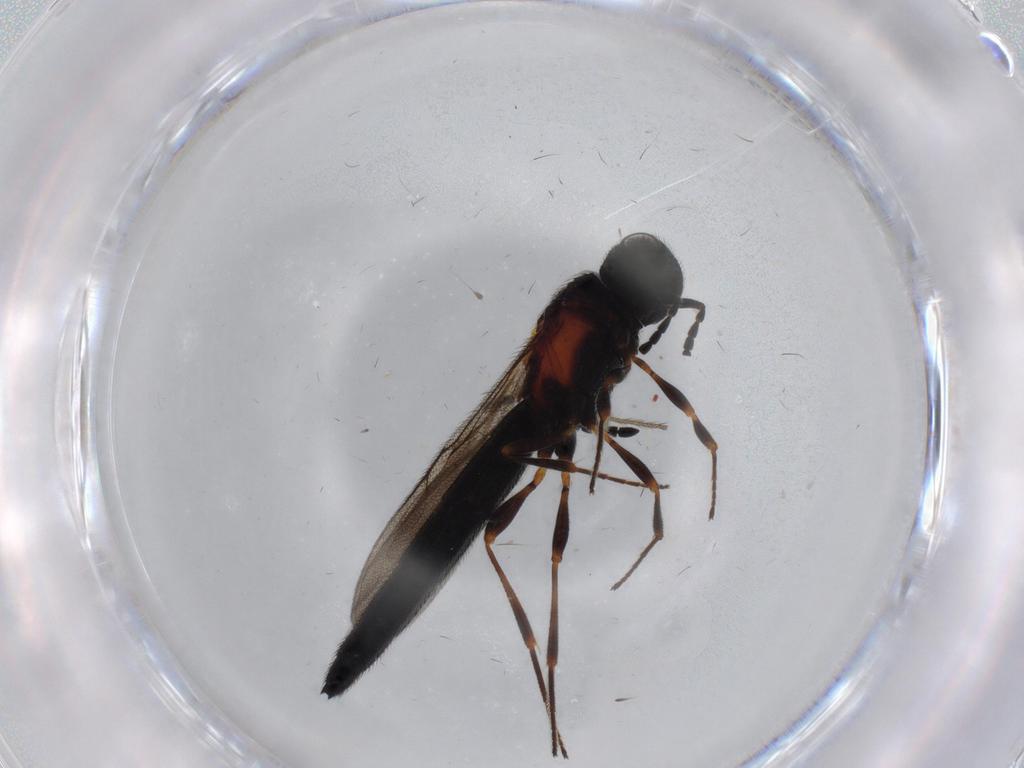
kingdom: Animalia
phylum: Arthropoda
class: Insecta
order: Hymenoptera
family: Scelionidae
